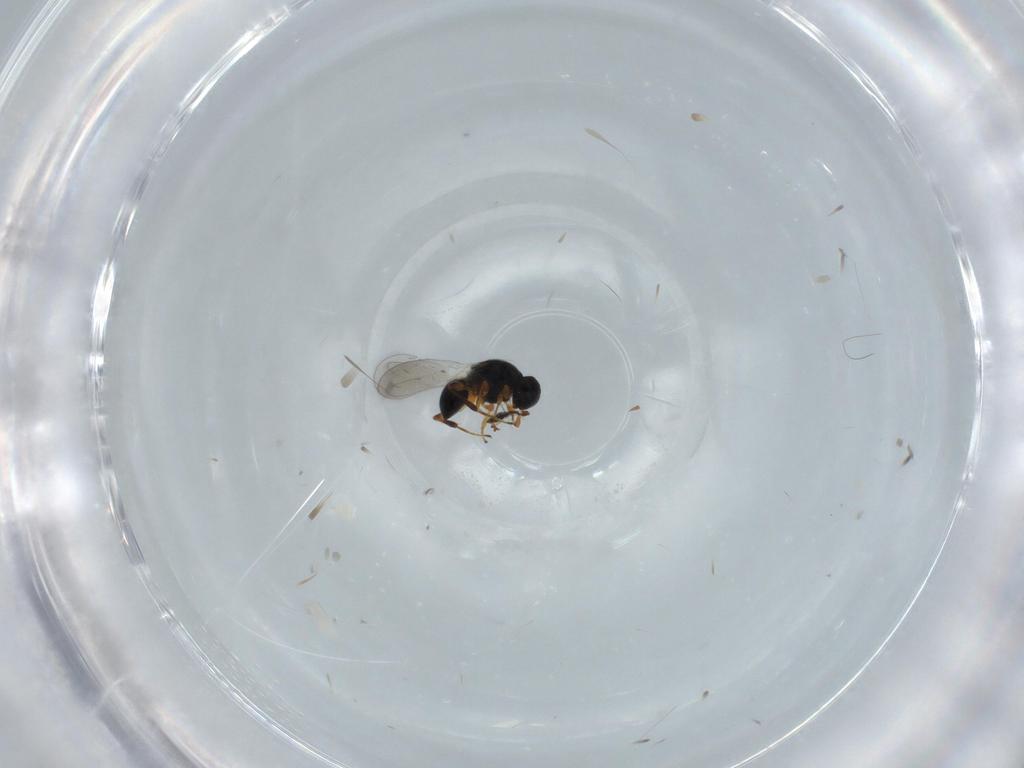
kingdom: Animalia
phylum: Arthropoda
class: Insecta
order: Hymenoptera
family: Platygastridae
